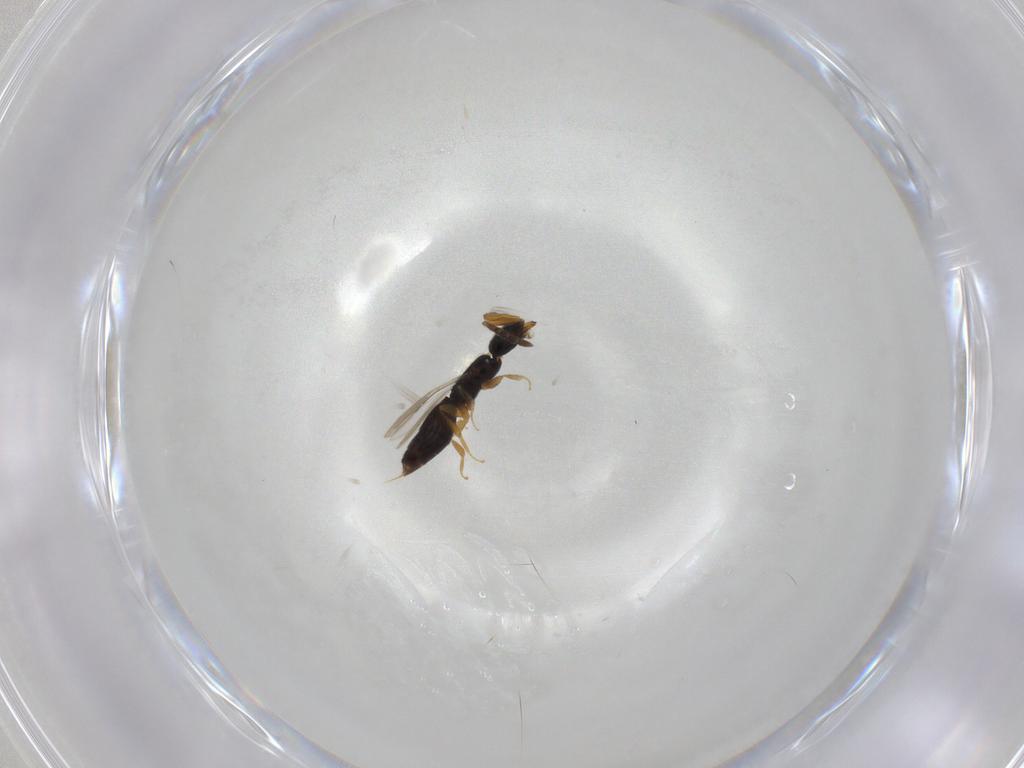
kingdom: Animalia
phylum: Arthropoda
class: Insecta
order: Hymenoptera
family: Ceraphronidae
